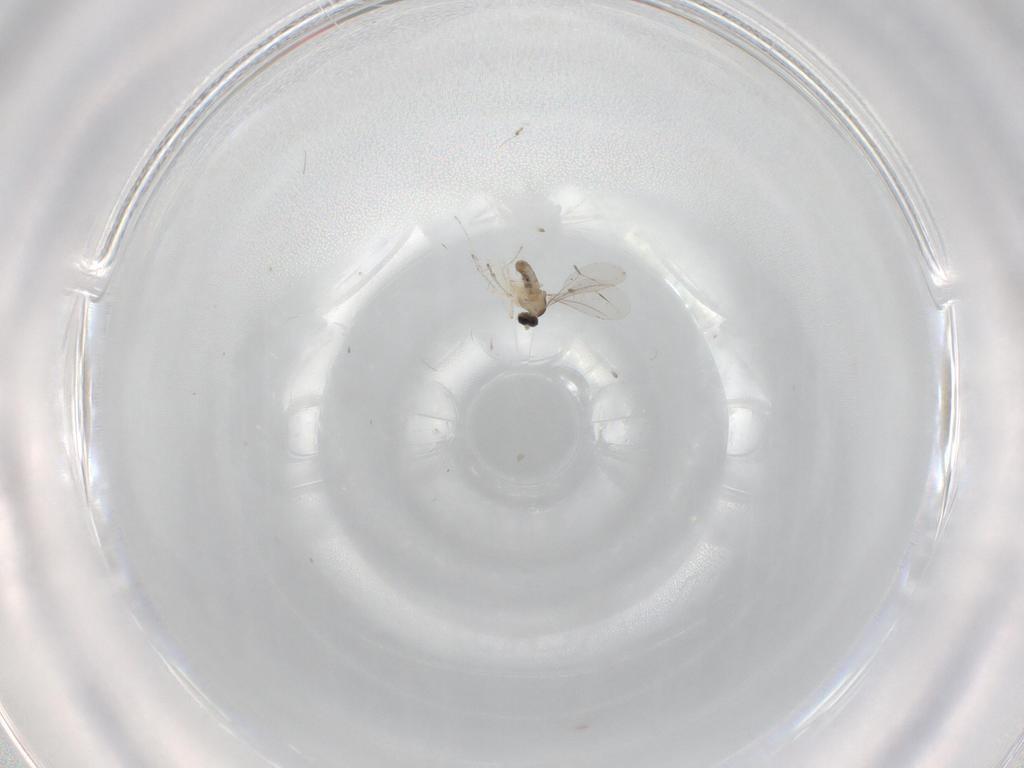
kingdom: Animalia
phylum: Arthropoda
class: Insecta
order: Diptera
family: Cecidomyiidae
